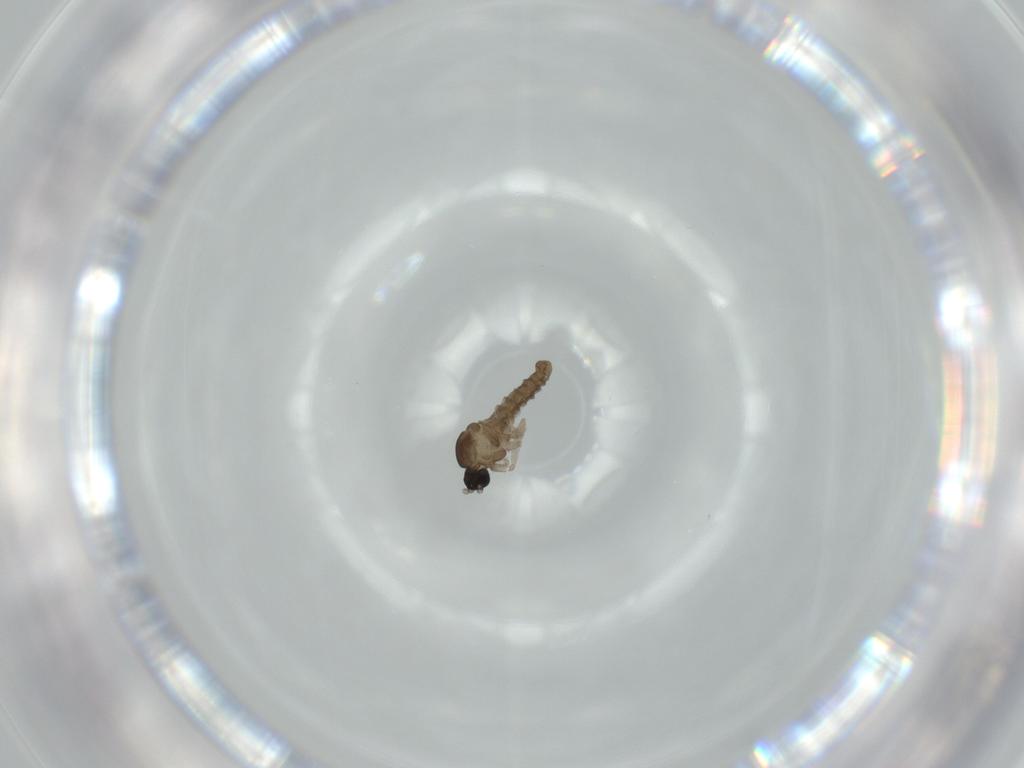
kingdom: Animalia
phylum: Arthropoda
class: Insecta
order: Diptera
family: Cecidomyiidae
